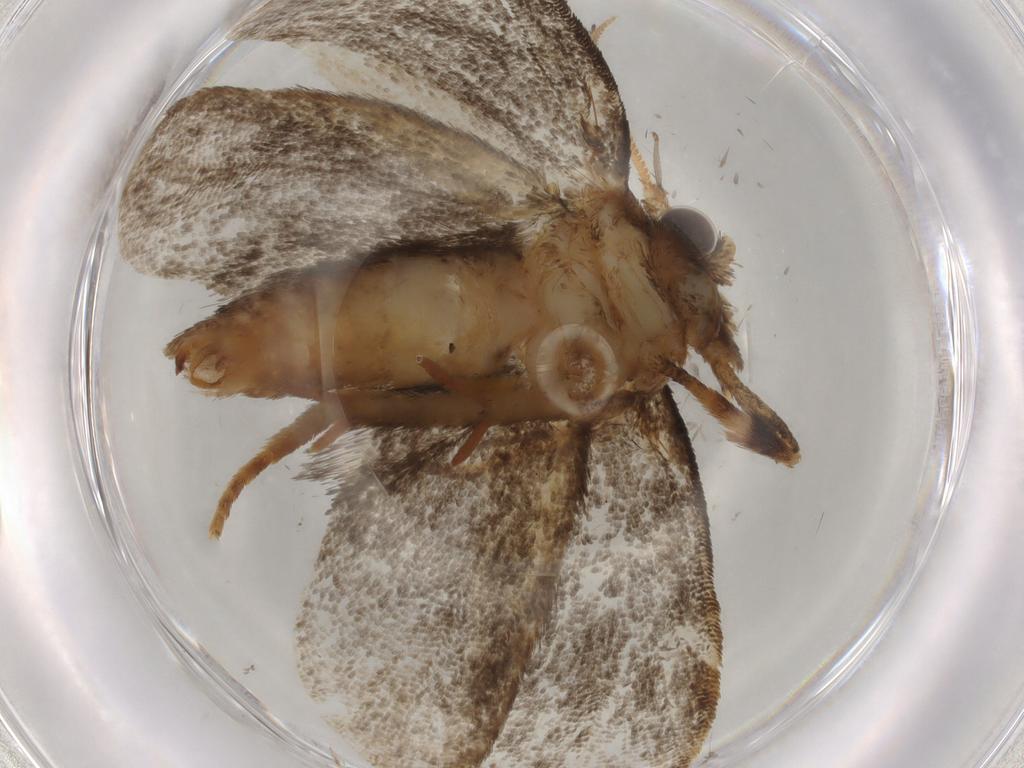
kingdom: Animalia
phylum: Arthropoda
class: Insecta
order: Lepidoptera
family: Tineidae
